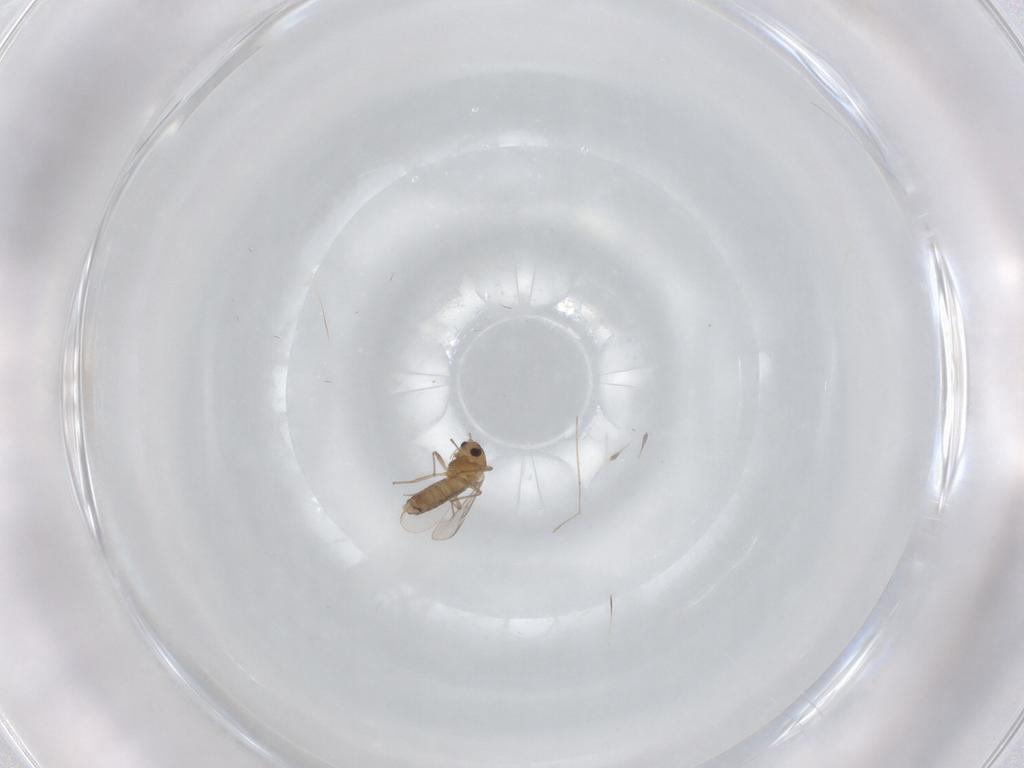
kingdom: Animalia
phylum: Arthropoda
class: Insecta
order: Diptera
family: Chironomidae
